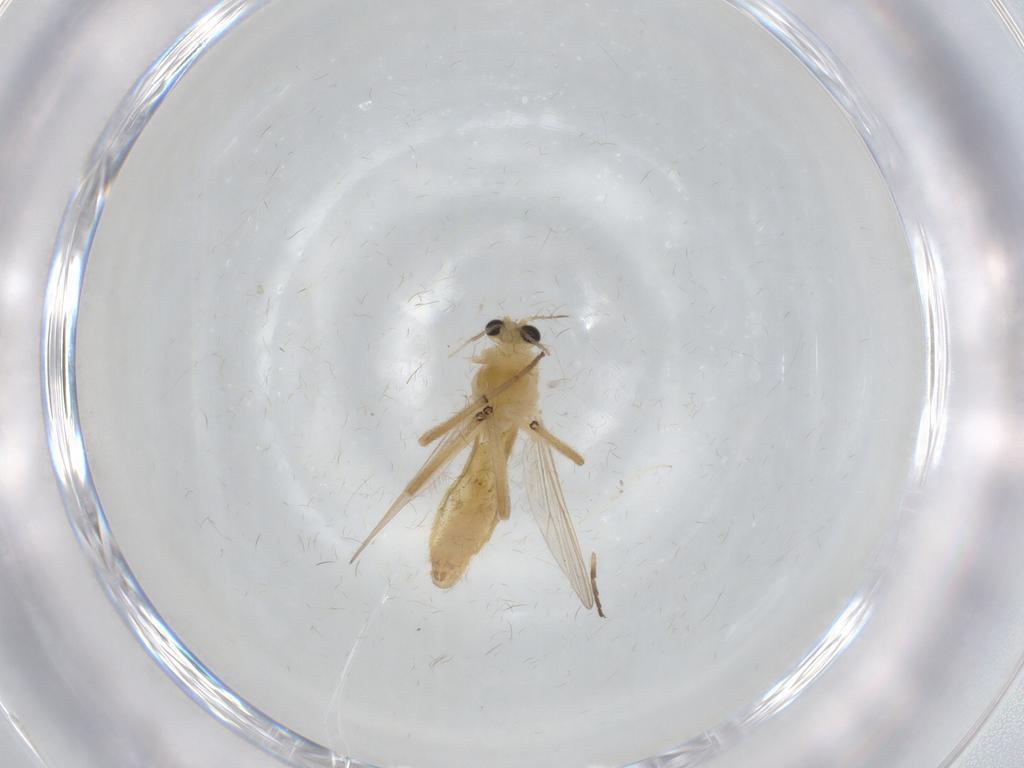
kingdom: Animalia
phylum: Arthropoda
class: Insecta
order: Diptera
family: Chironomidae
